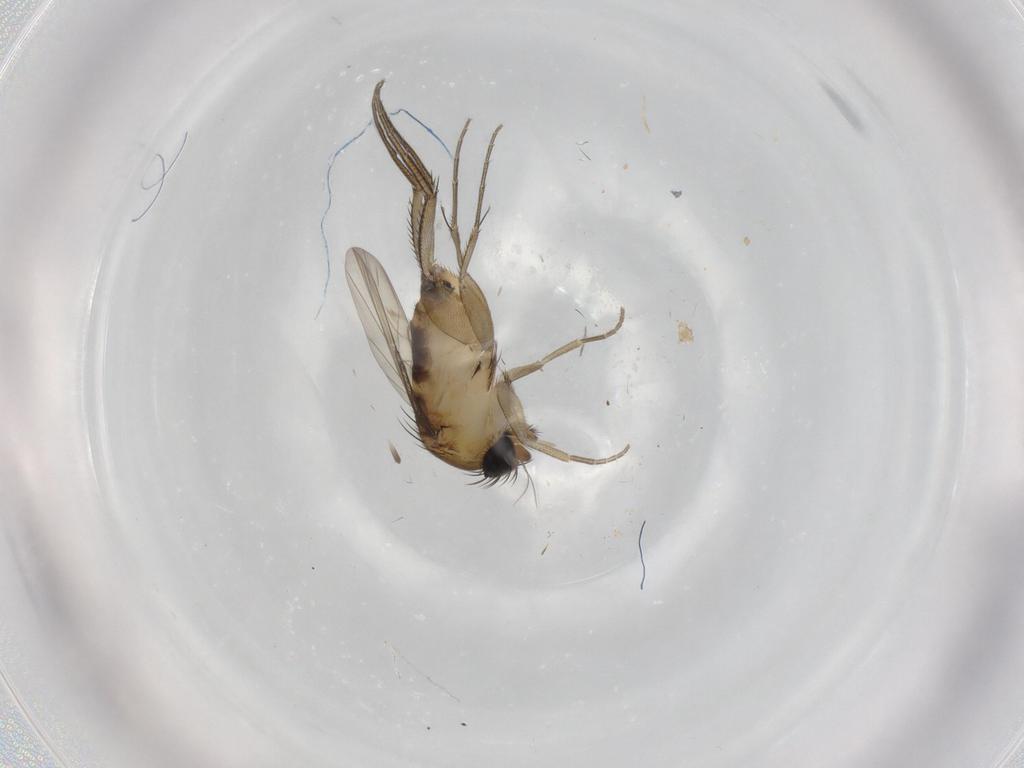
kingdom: Animalia
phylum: Arthropoda
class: Insecta
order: Diptera
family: Phoridae
